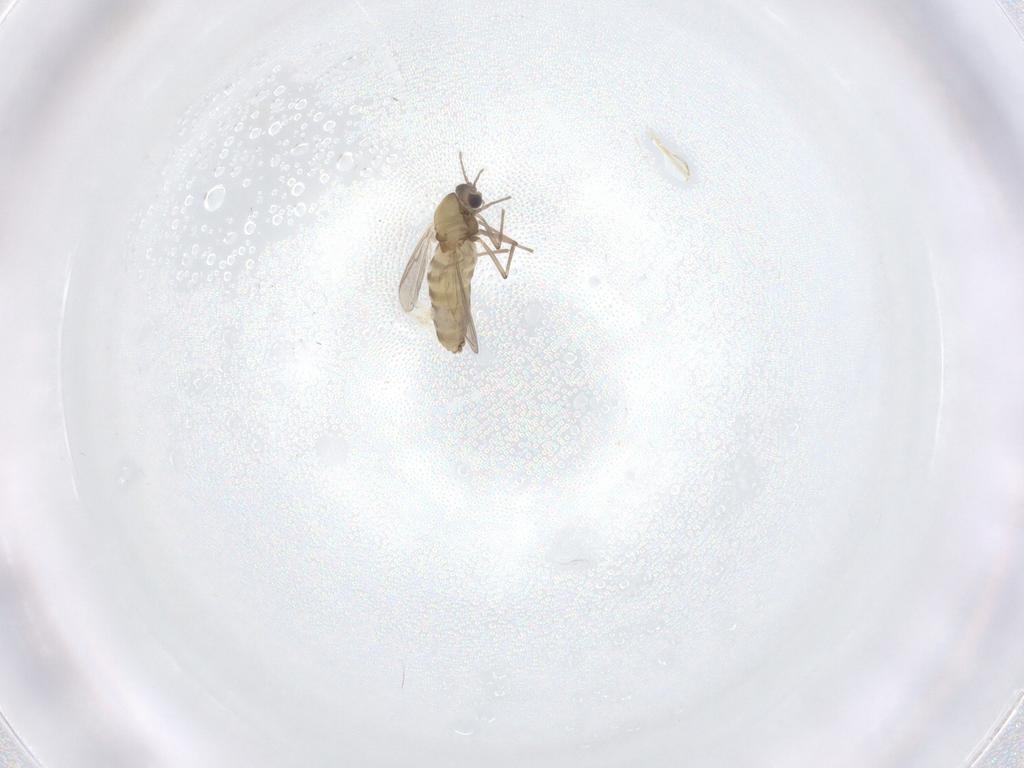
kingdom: Animalia
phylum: Arthropoda
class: Insecta
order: Diptera
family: Chironomidae
